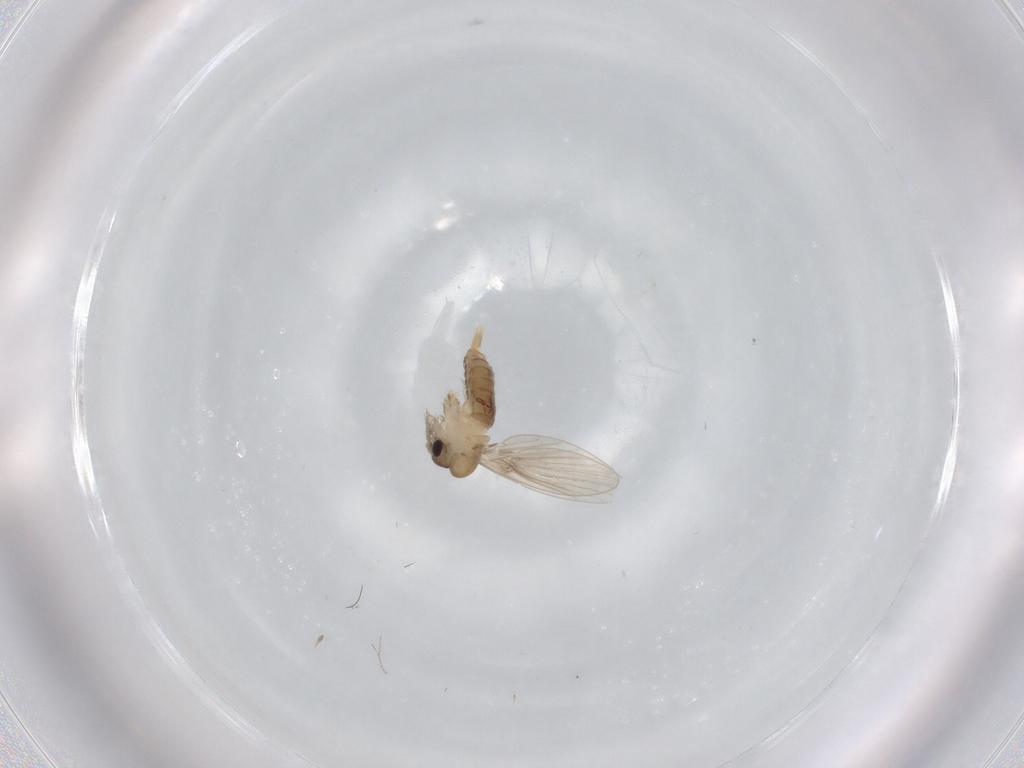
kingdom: Animalia
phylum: Arthropoda
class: Insecta
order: Diptera
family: Psychodidae
